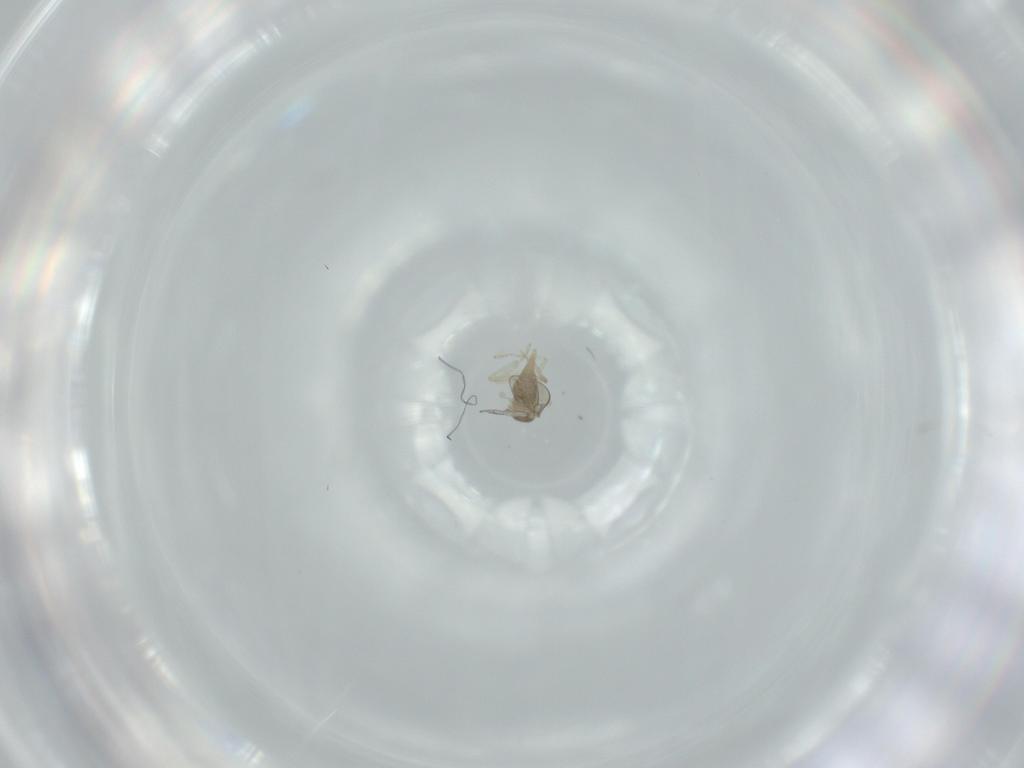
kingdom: Animalia
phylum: Arthropoda
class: Insecta
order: Diptera
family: Cecidomyiidae
